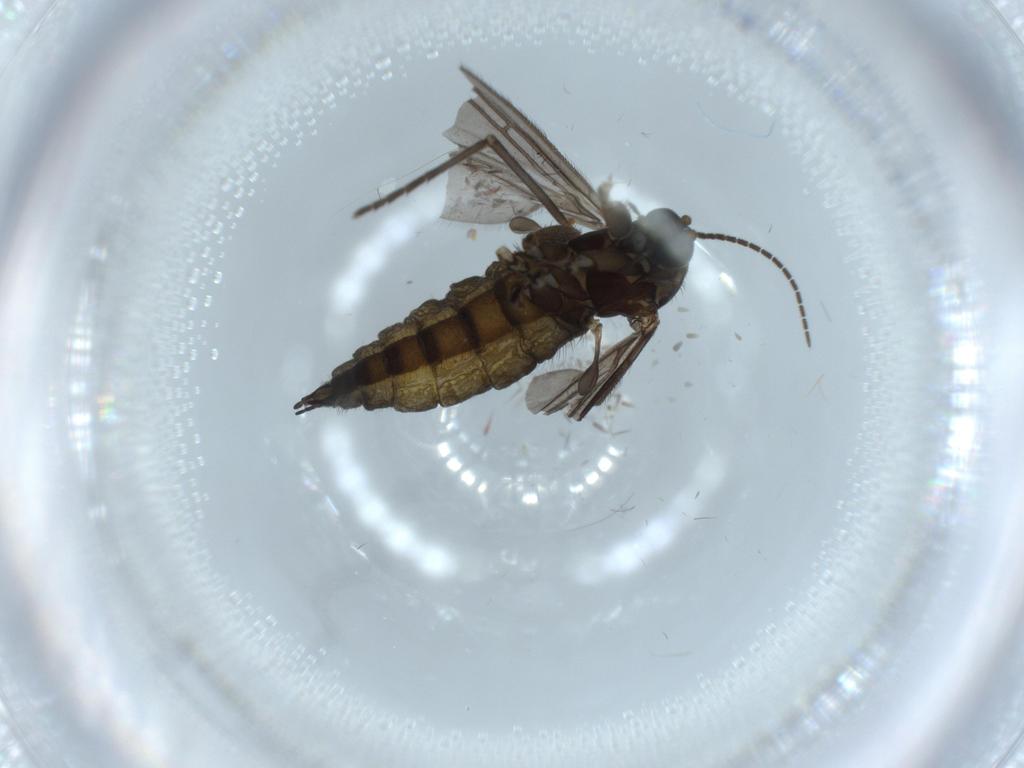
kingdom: Animalia
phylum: Arthropoda
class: Insecta
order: Diptera
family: Sciaridae
